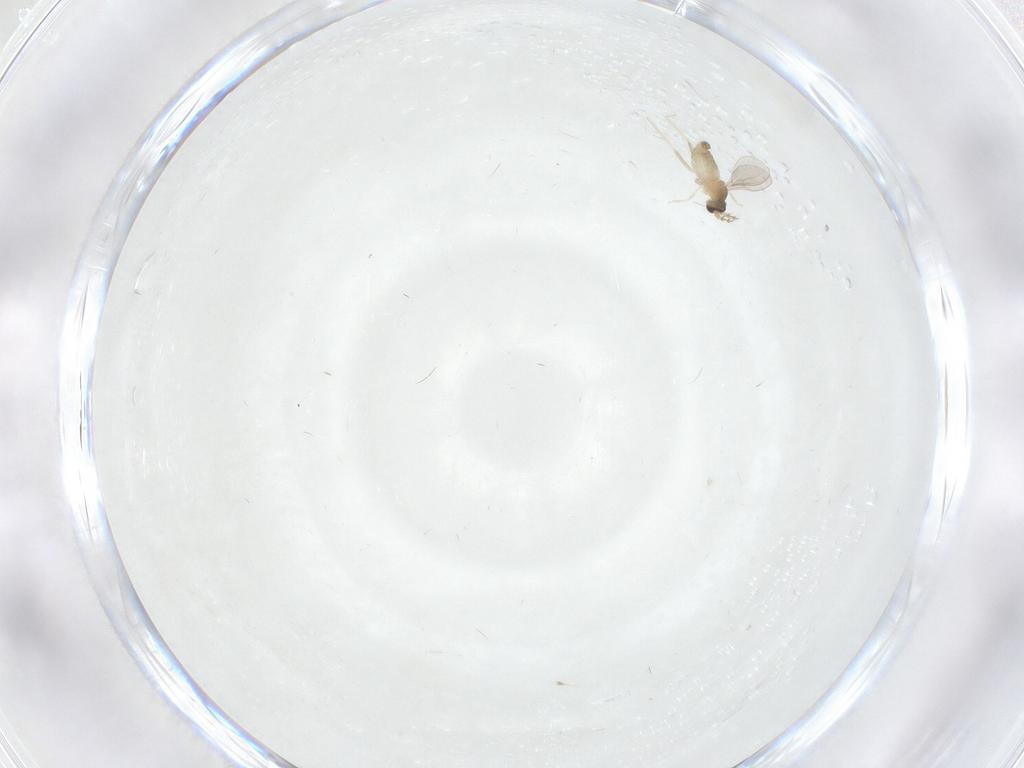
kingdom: Animalia
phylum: Arthropoda
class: Insecta
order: Diptera
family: Cecidomyiidae
